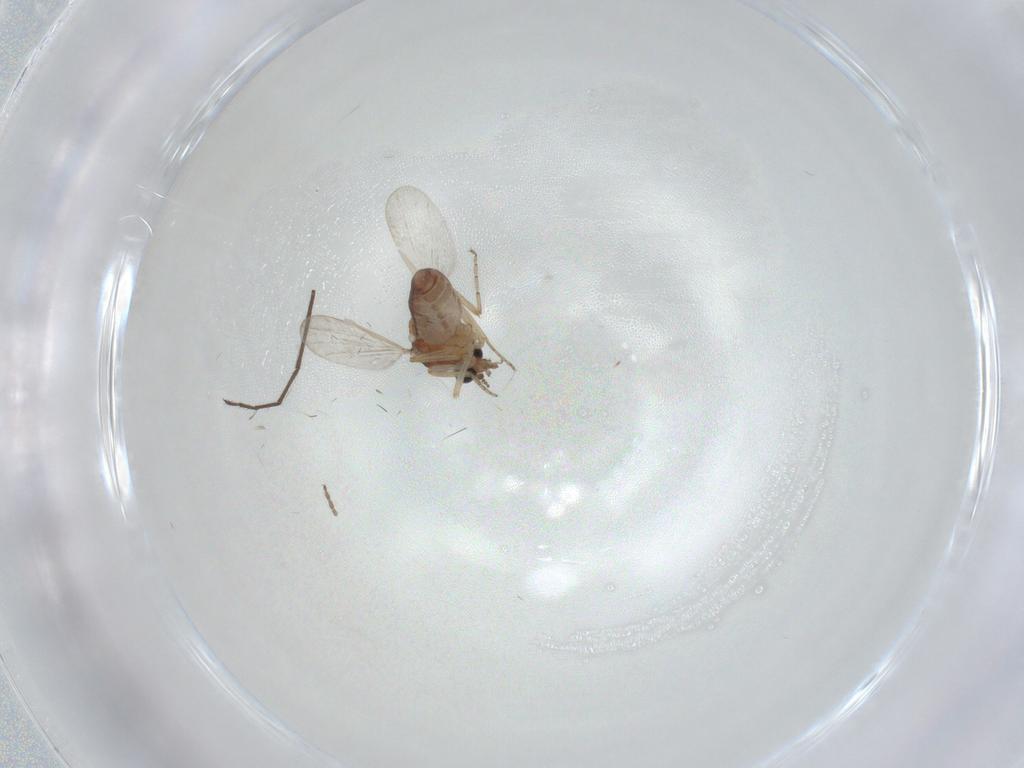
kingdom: Animalia
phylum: Arthropoda
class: Insecta
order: Diptera
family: Ceratopogonidae
